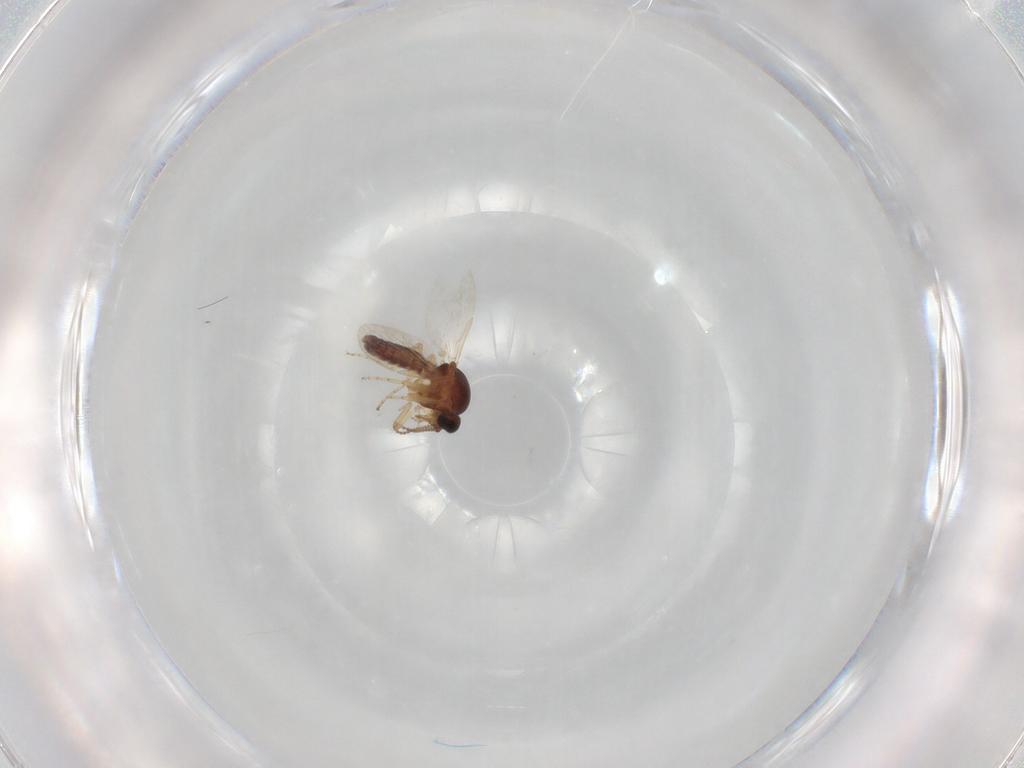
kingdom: Animalia
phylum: Arthropoda
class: Insecta
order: Diptera
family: Ceratopogonidae
